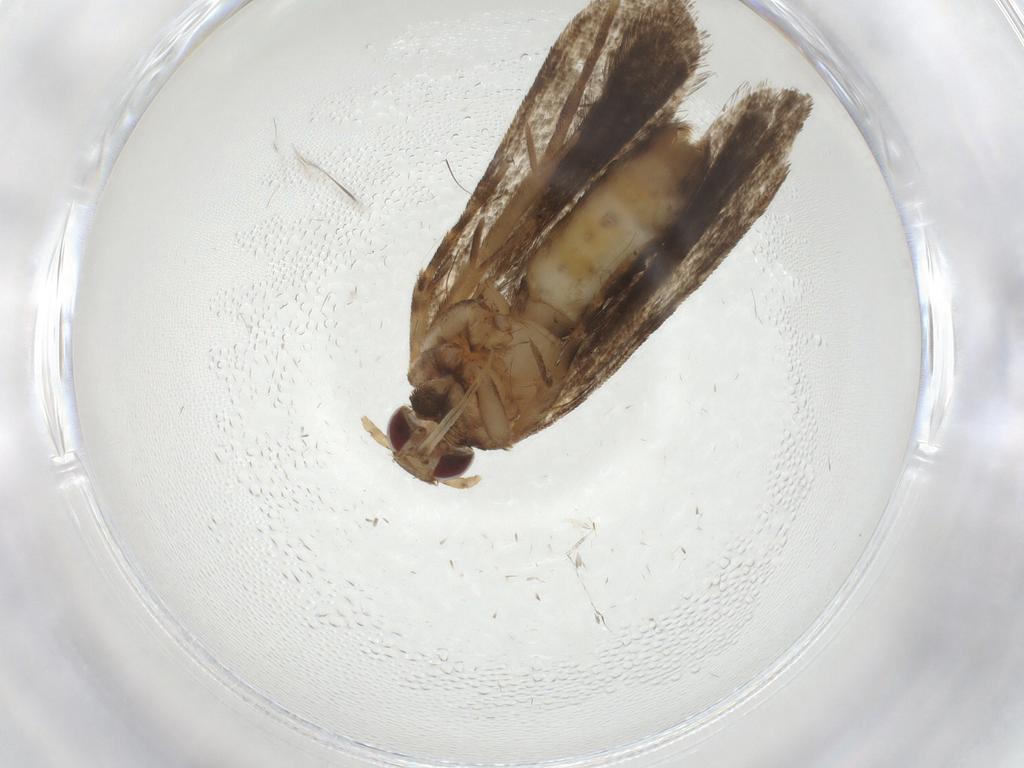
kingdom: Animalia
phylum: Arthropoda
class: Insecta
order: Lepidoptera
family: Gelechiidae
